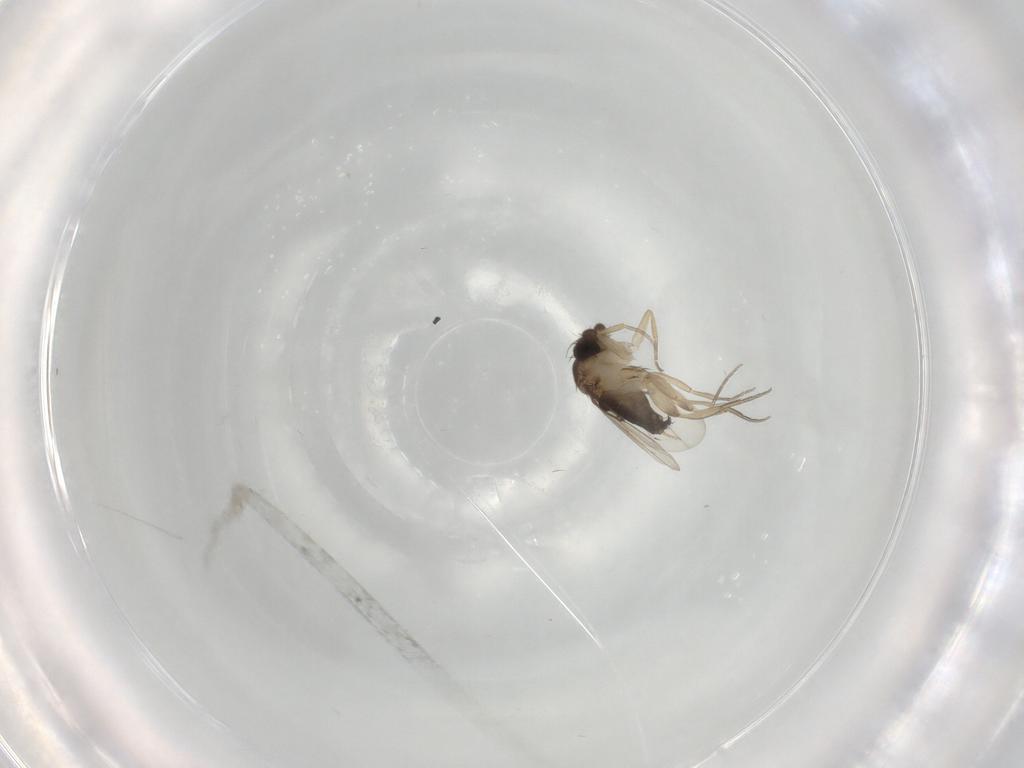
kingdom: Animalia
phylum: Arthropoda
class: Insecta
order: Diptera
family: Phoridae
